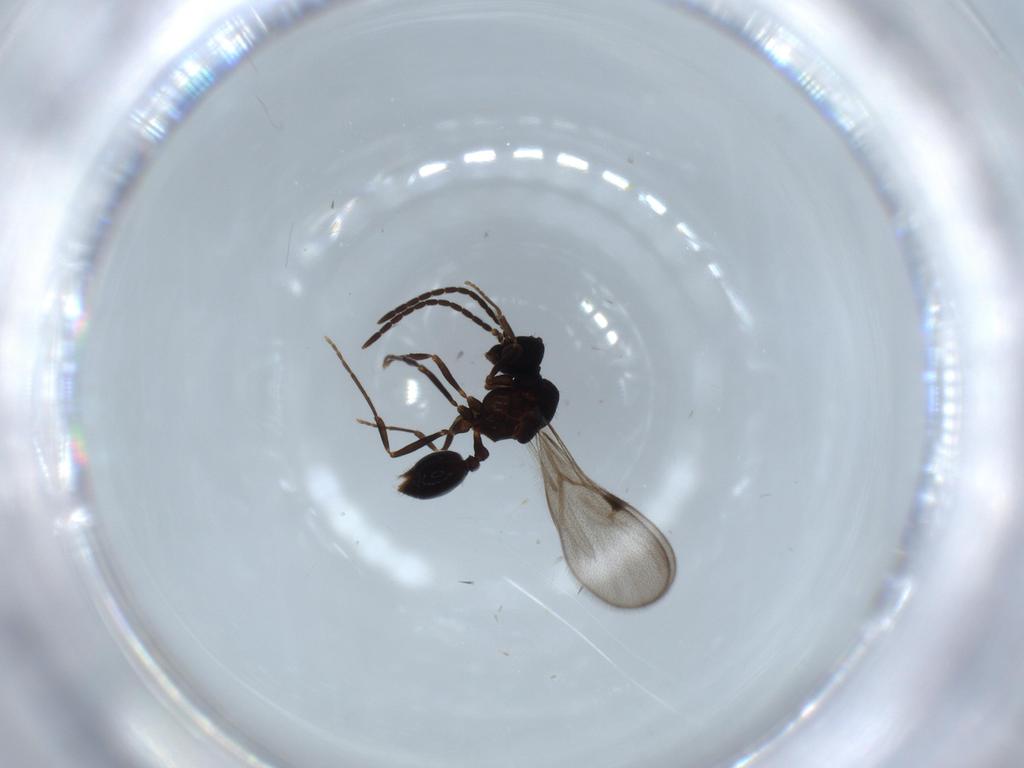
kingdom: Animalia
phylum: Arthropoda
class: Insecta
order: Hymenoptera
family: Formicidae
